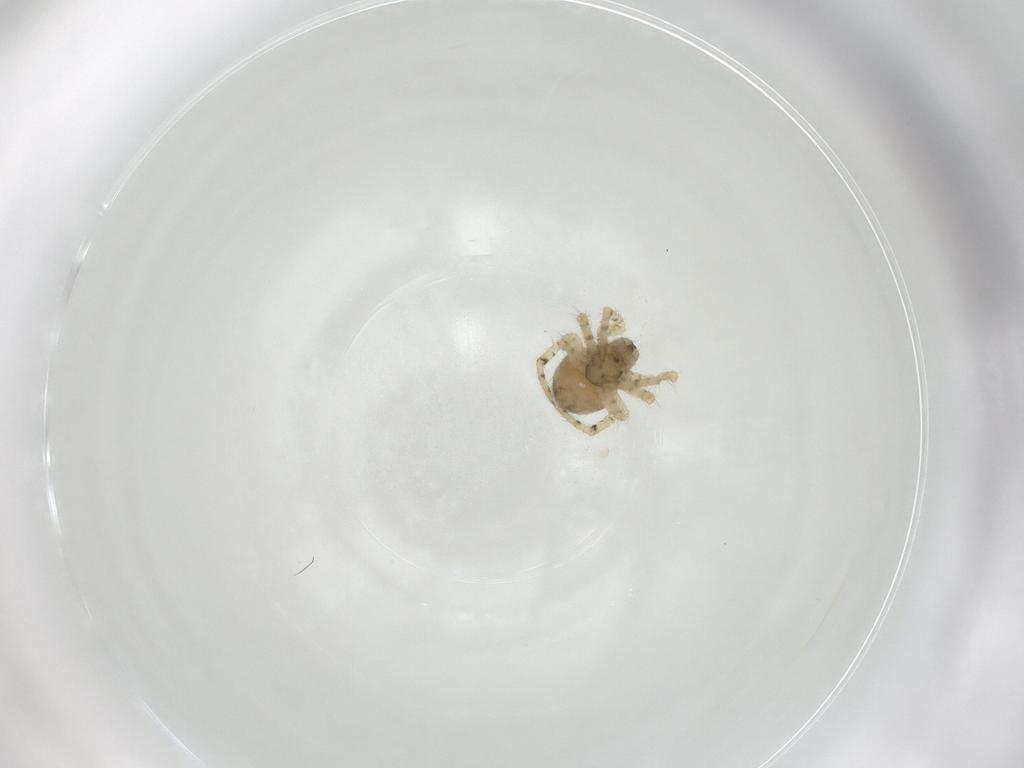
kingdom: Animalia
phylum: Arthropoda
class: Arachnida
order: Araneae
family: Theridiidae
